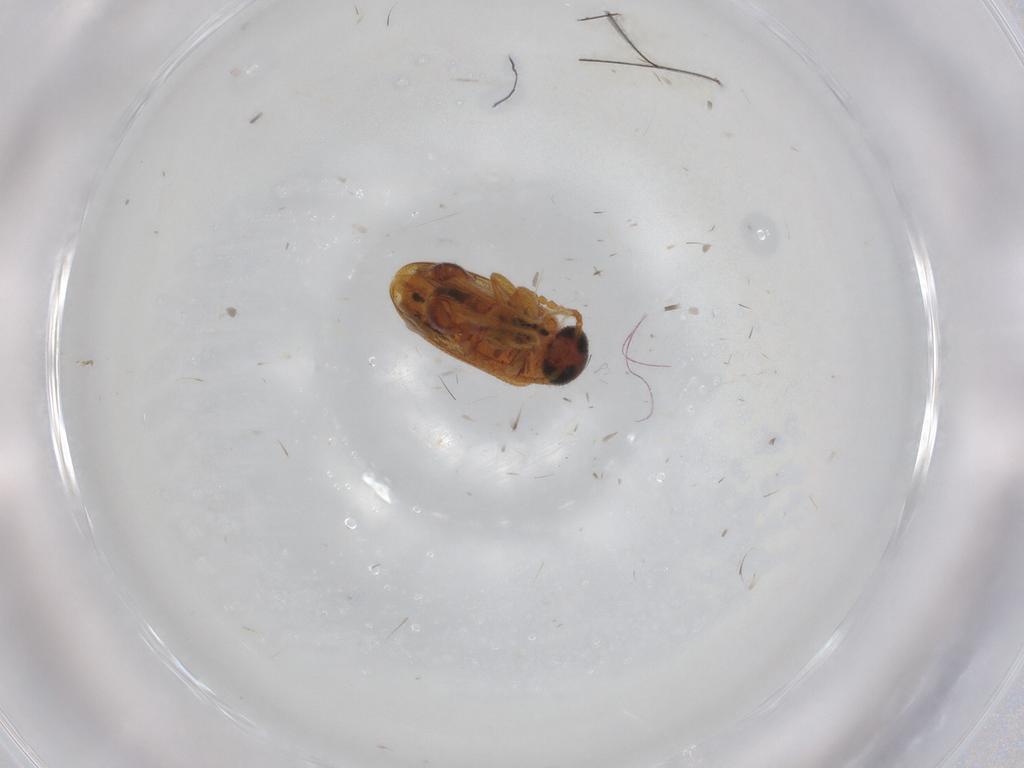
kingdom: Animalia
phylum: Arthropoda
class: Insecta
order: Coleoptera
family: Aderidae
